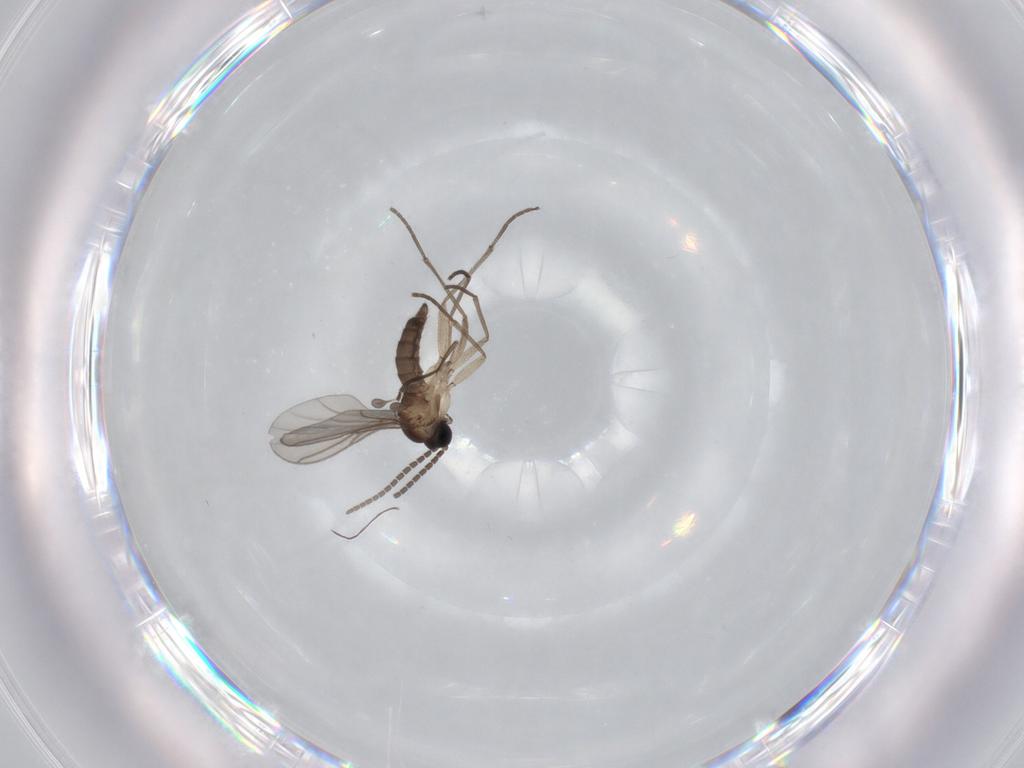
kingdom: Animalia
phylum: Arthropoda
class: Insecta
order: Diptera
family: Sciaridae
